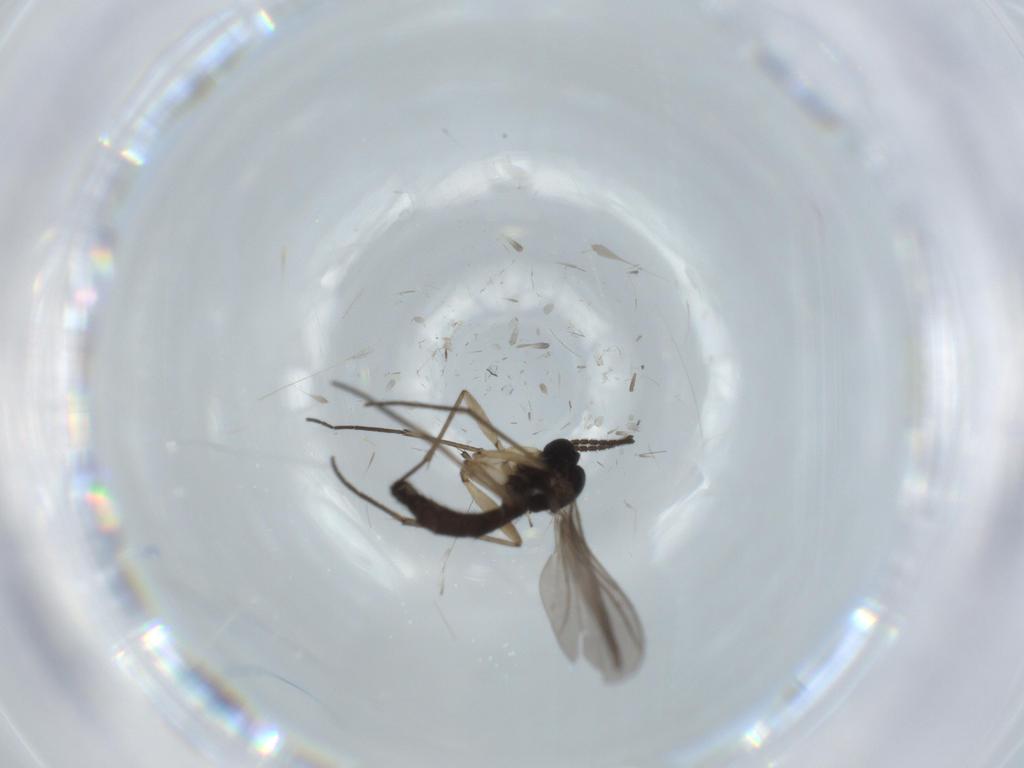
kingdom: Animalia
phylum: Arthropoda
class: Insecta
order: Diptera
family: Sciaridae
